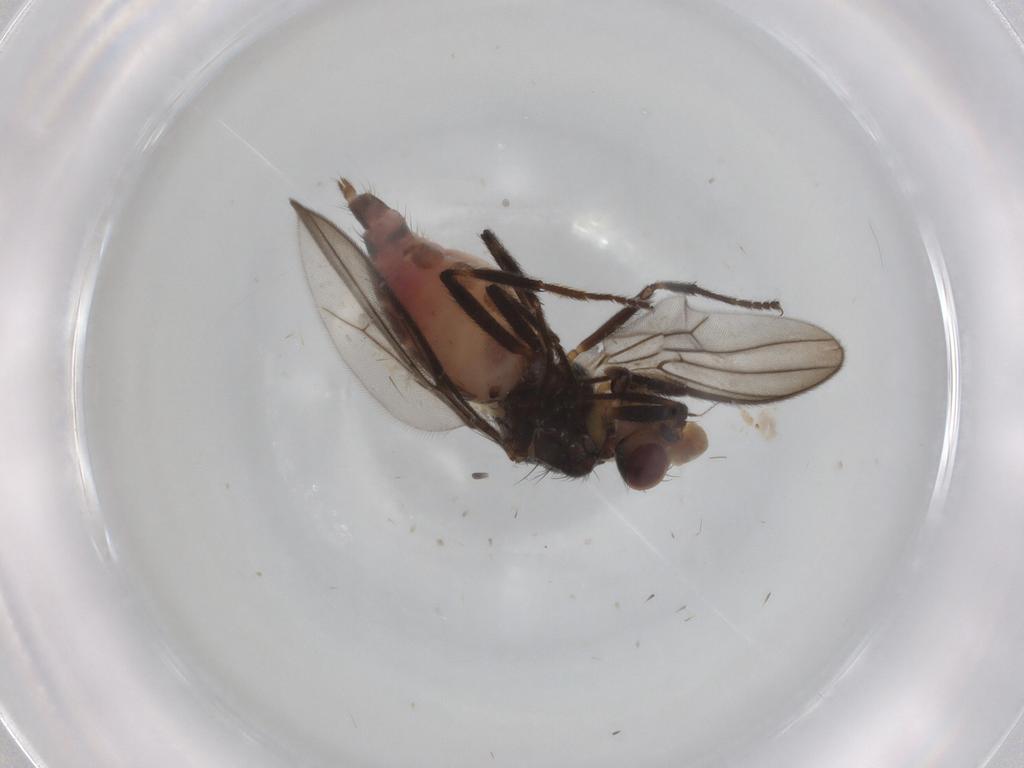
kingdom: Animalia
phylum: Arthropoda
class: Insecta
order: Diptera
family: Chloropidae
